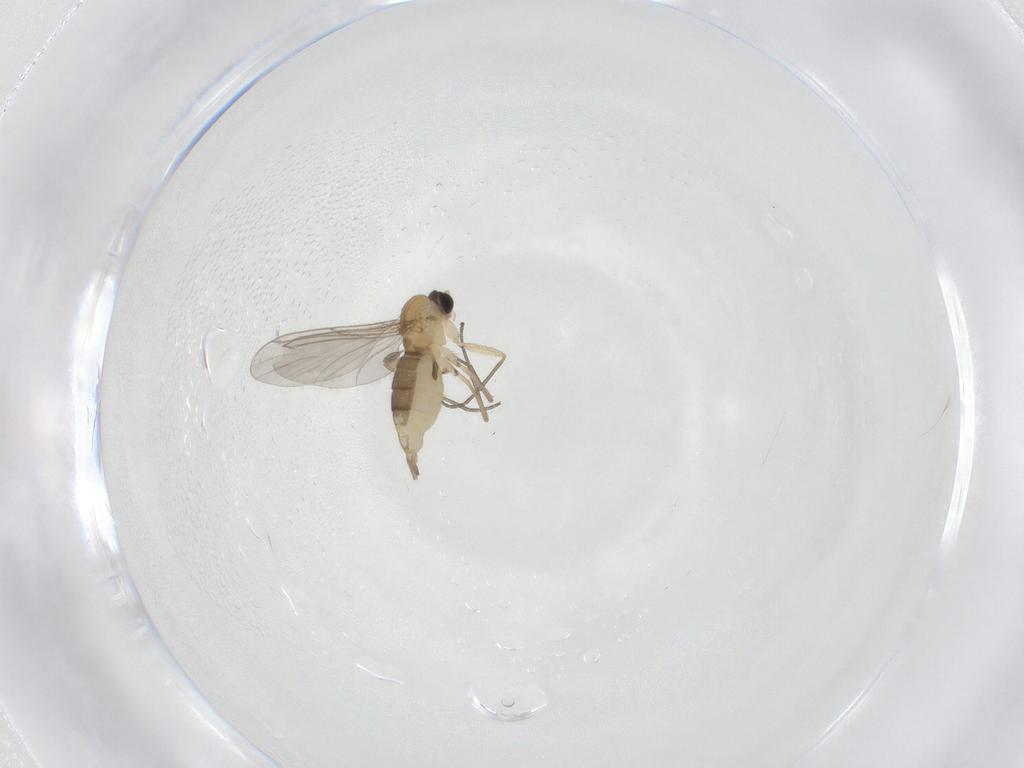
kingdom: Animalia
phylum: Arthropoda
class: Insecta
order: Diptera
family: Sciaridae
